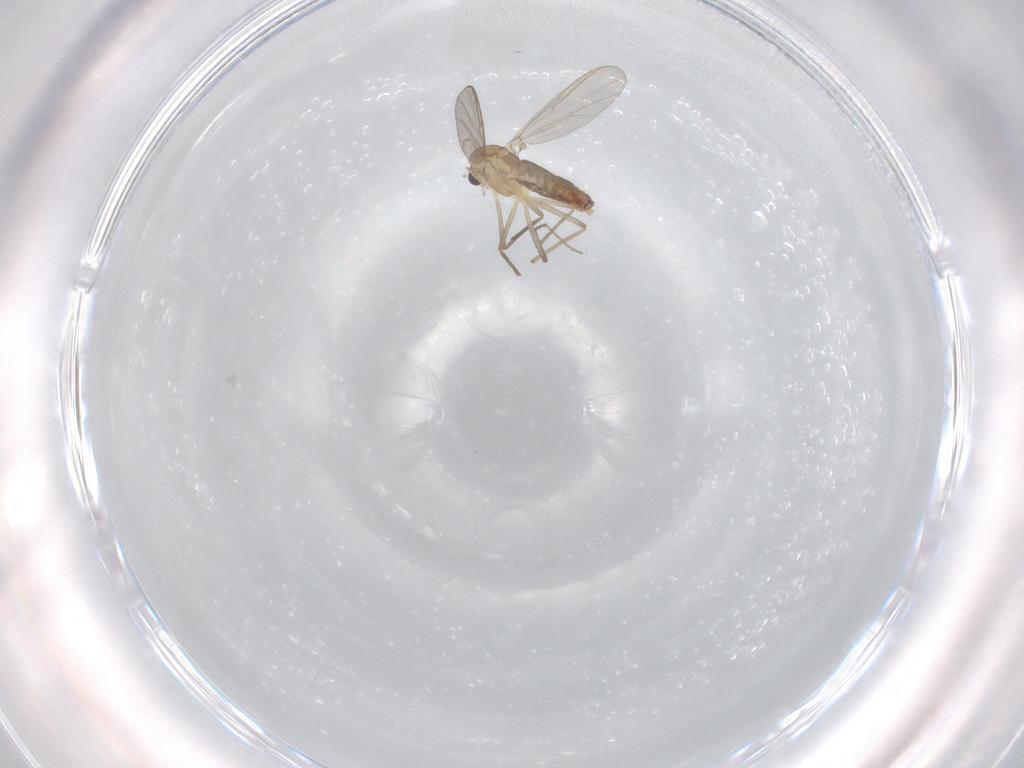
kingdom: Animalia
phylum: Arthropoda
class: Insecta
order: Diptera
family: Chironomidae
